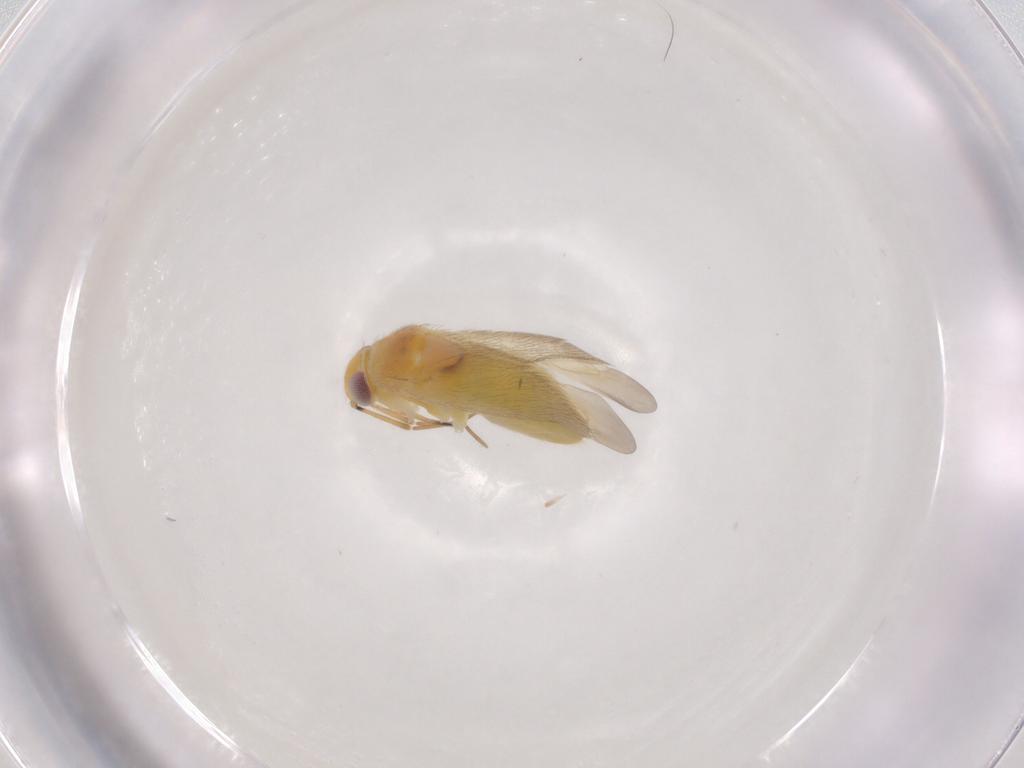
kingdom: Animalia
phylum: Arthropoda
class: Insecta
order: Hemiptera
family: Miridae
